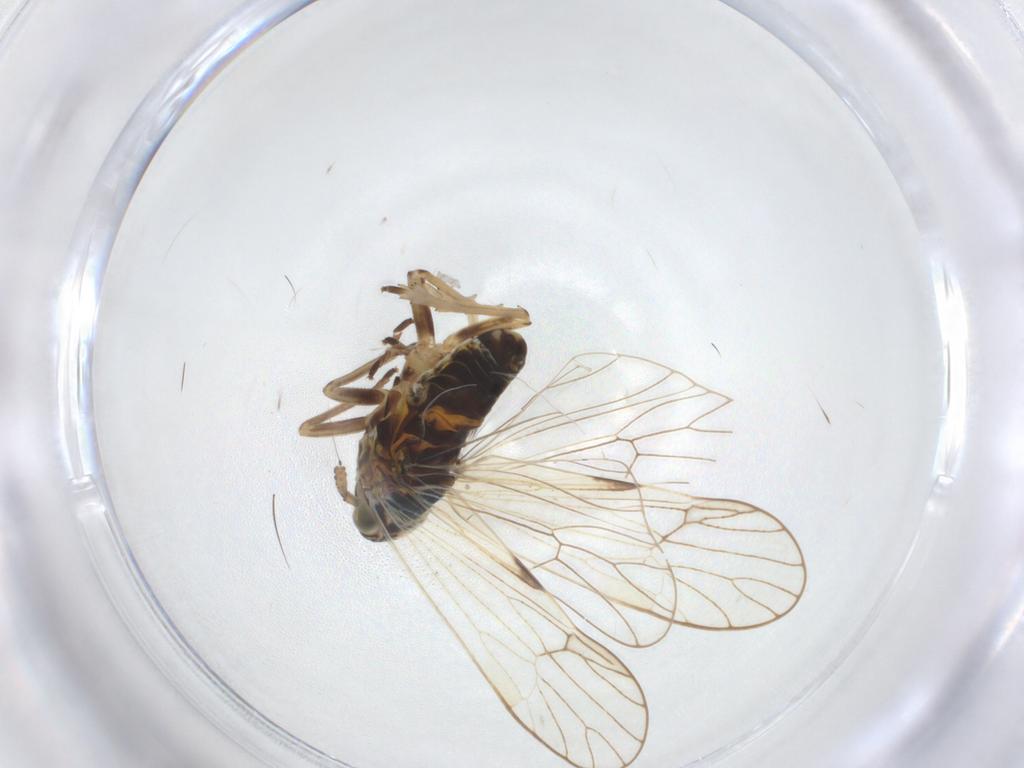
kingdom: Animalia
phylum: Arthropoda
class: Insecta
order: Hemiptera
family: Delphacidae
